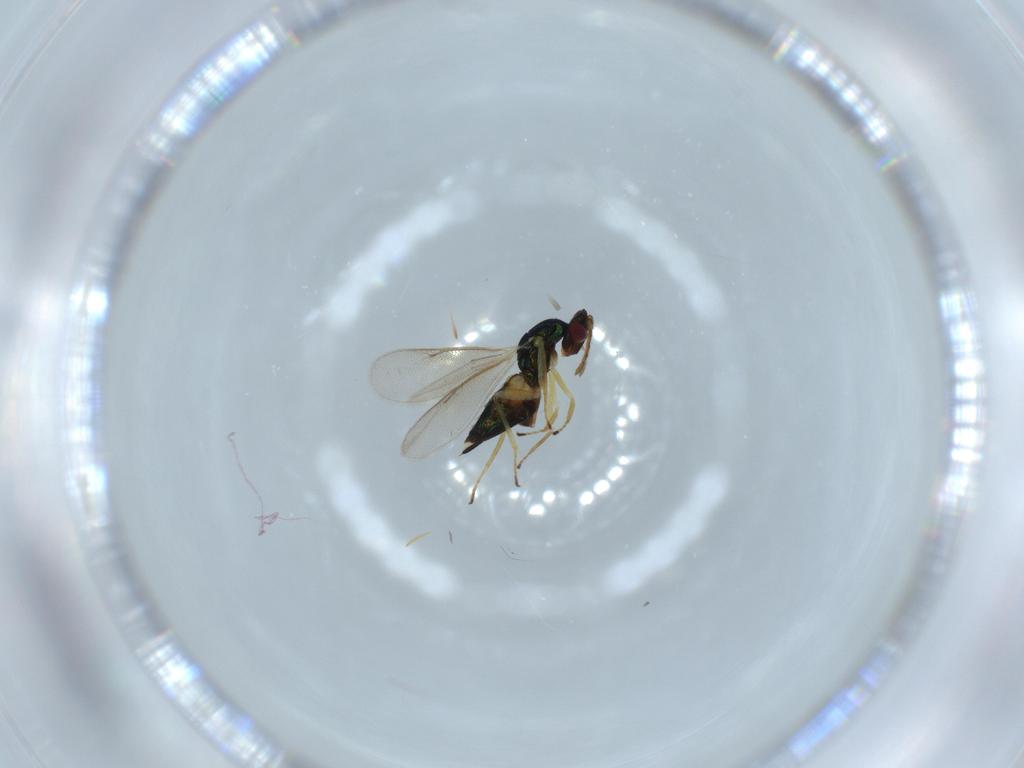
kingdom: Animalia
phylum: Arthropoda
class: Insecta
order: Hymenoptera
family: Eulophidae
